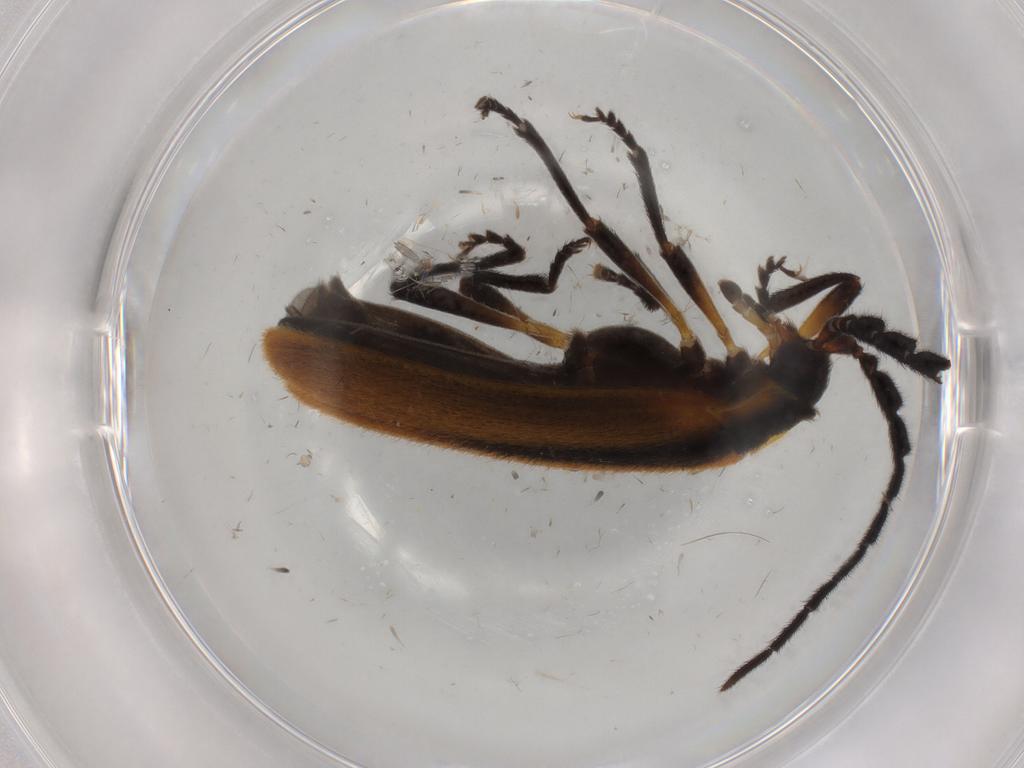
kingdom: Animalia
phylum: Arthropoda
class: Insecta
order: Coleoptera
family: Lycidae
